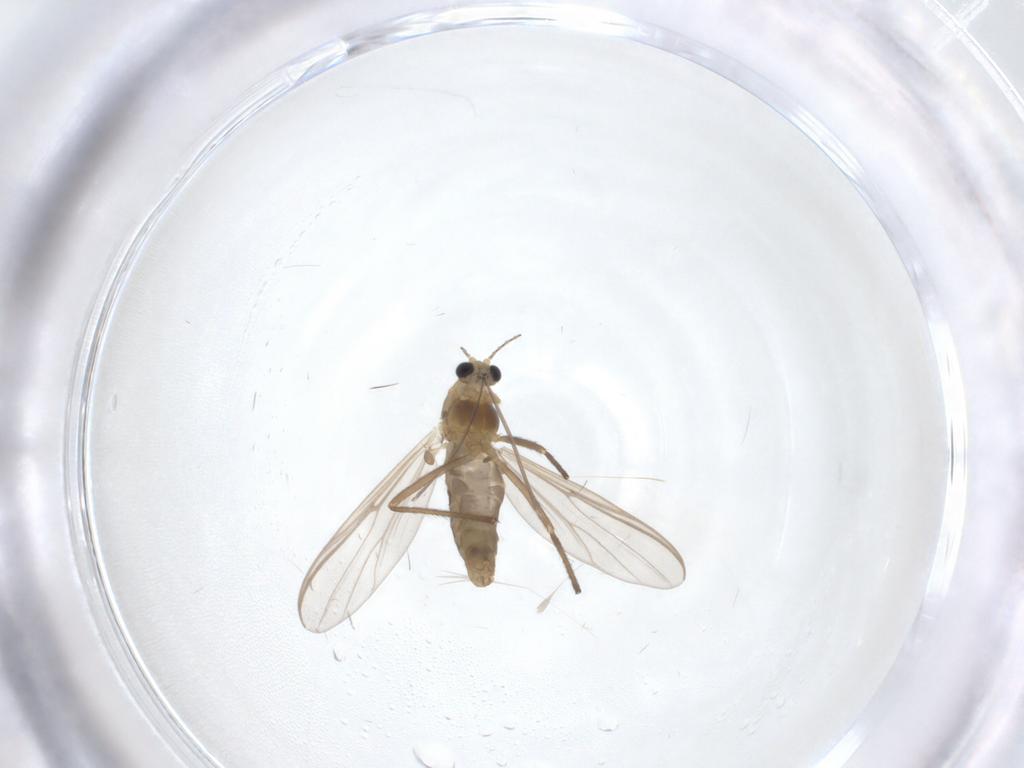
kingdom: Animalia
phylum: Arthropoda
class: Insecta
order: Diptera
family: Chironomidae
